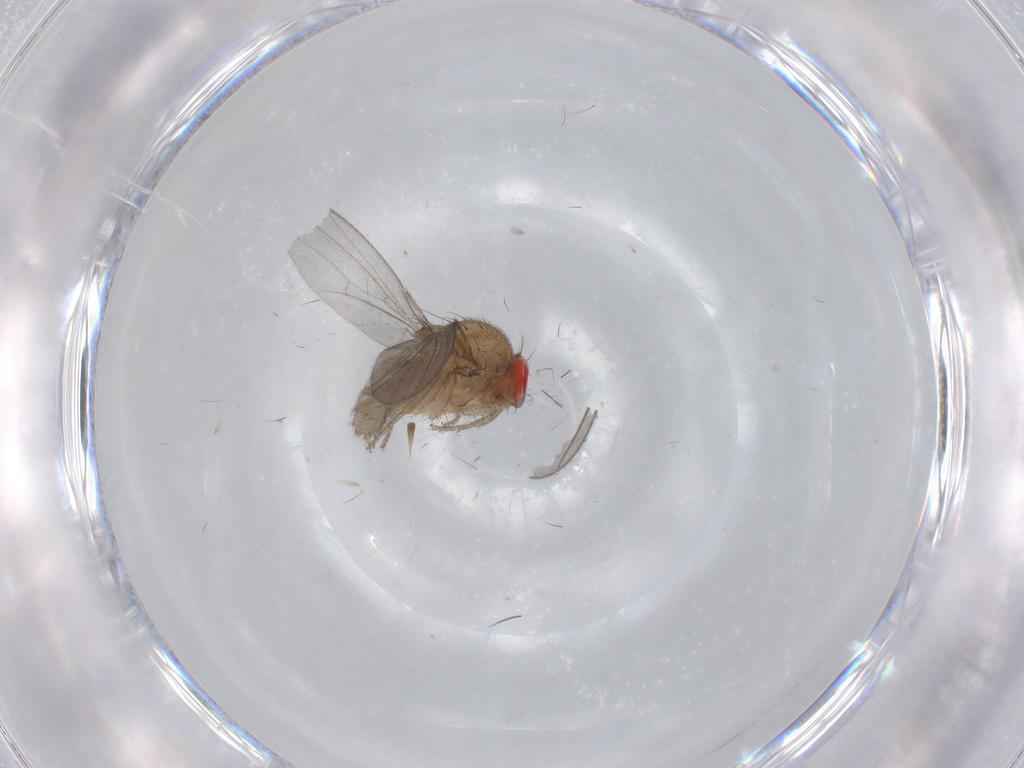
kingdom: Animalia
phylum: Arthropoda
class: Insecta
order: Diptera
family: Drosophilidae
